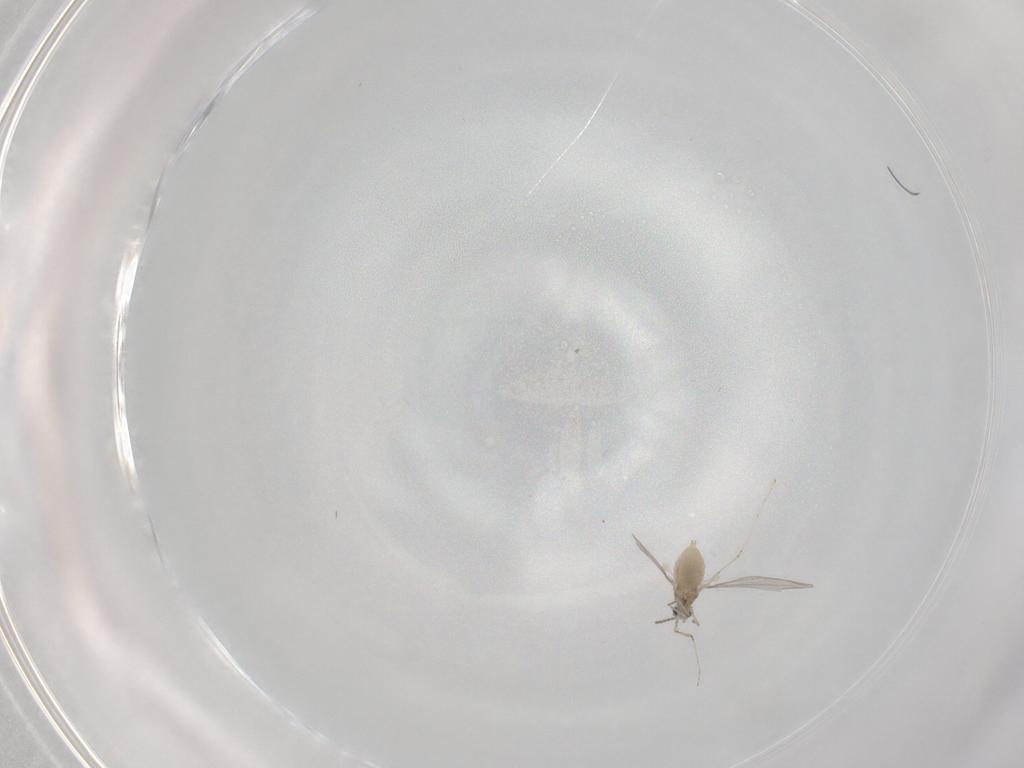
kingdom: Animalia
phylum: Arthropoda
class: Insecta
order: Diptera
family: Cecidomyiidae
